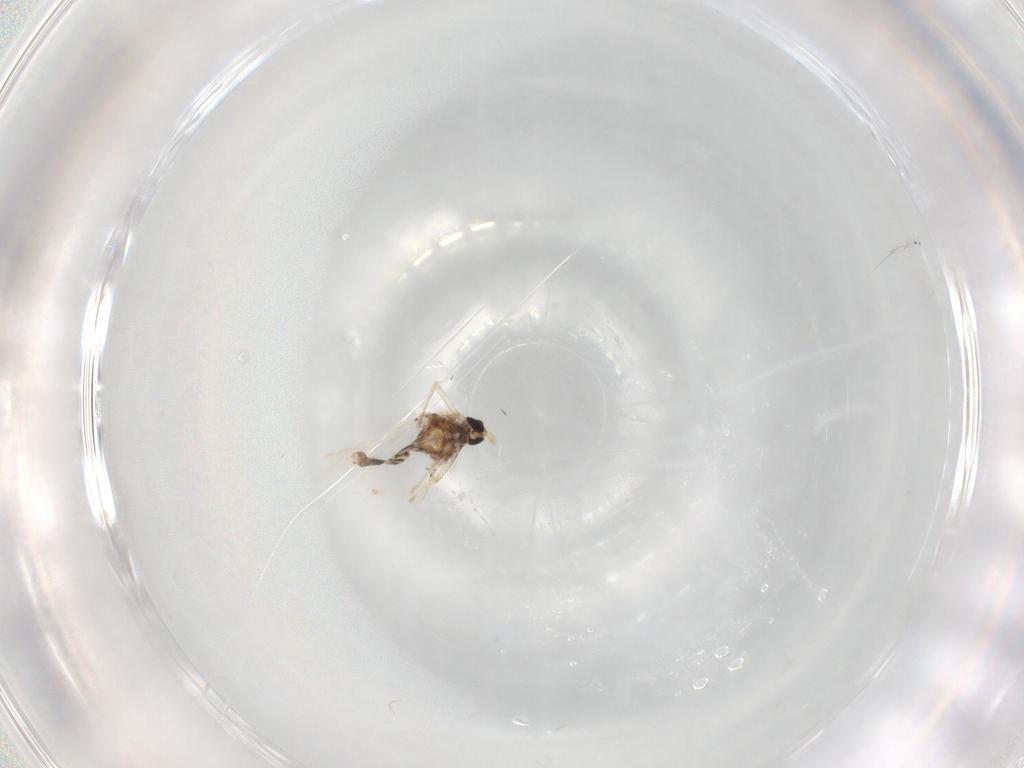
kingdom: Animalia
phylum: Arthropoda
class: Insecta
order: Diptera
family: Chironomidae
